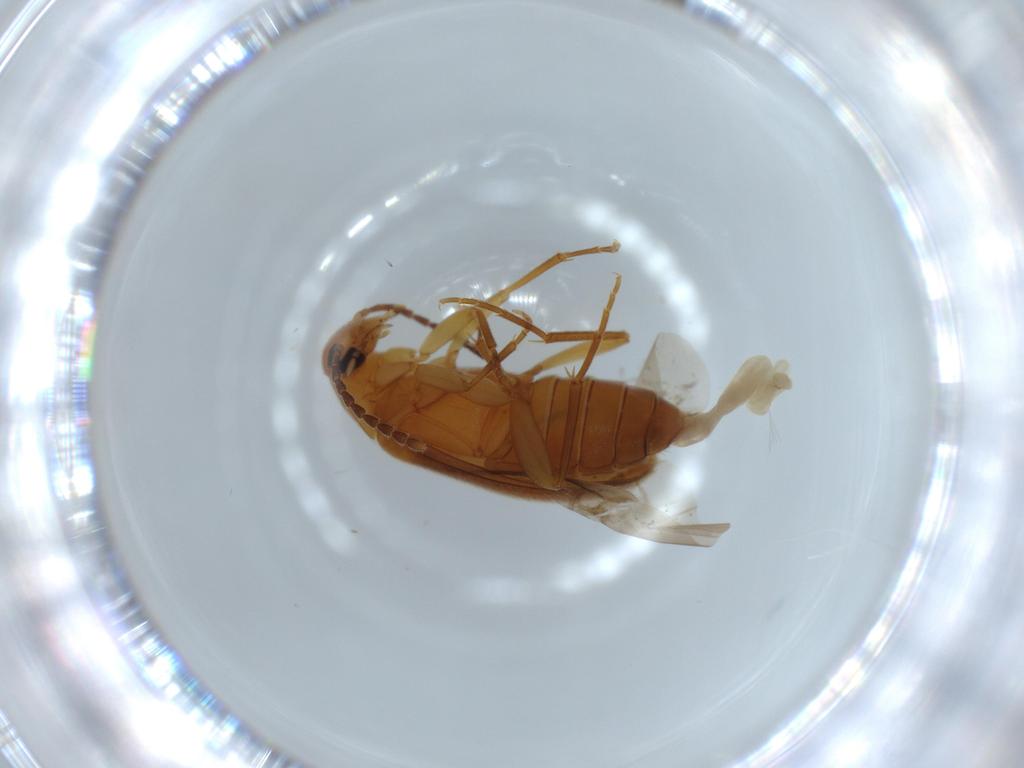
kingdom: Animalia
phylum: Arthropoda
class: Insecta
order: Coleoptera
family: Scraptiidae
